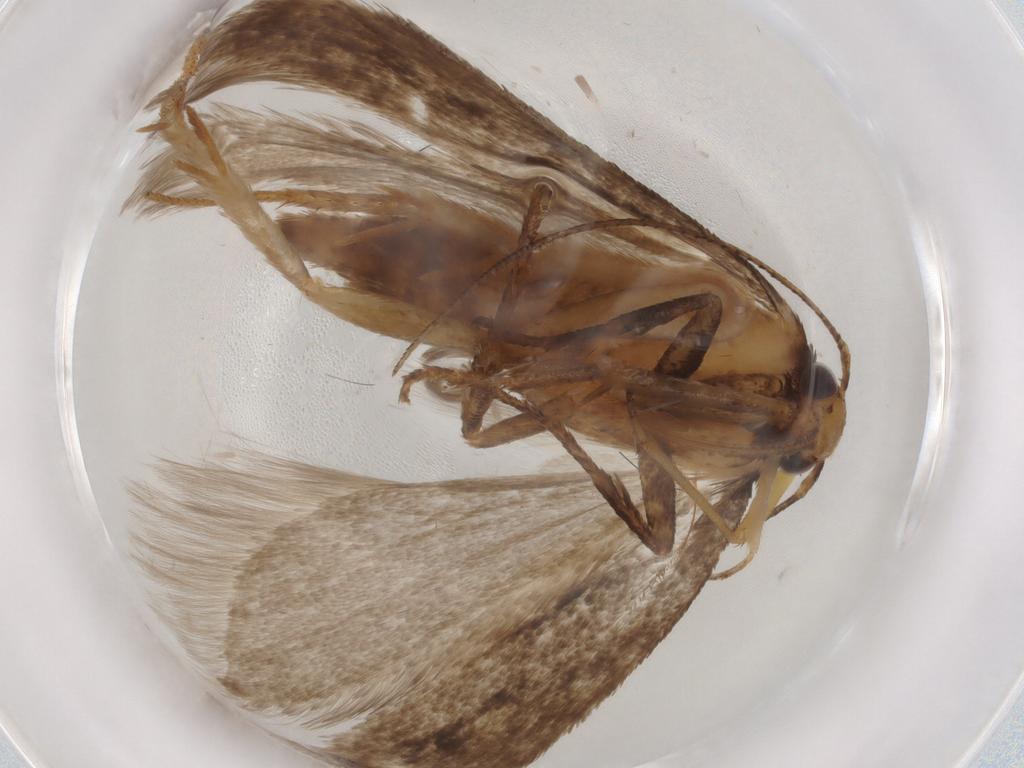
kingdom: Animalia
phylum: Arthropoda
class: Insecta
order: Lepidoptera
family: Gelechiidae
